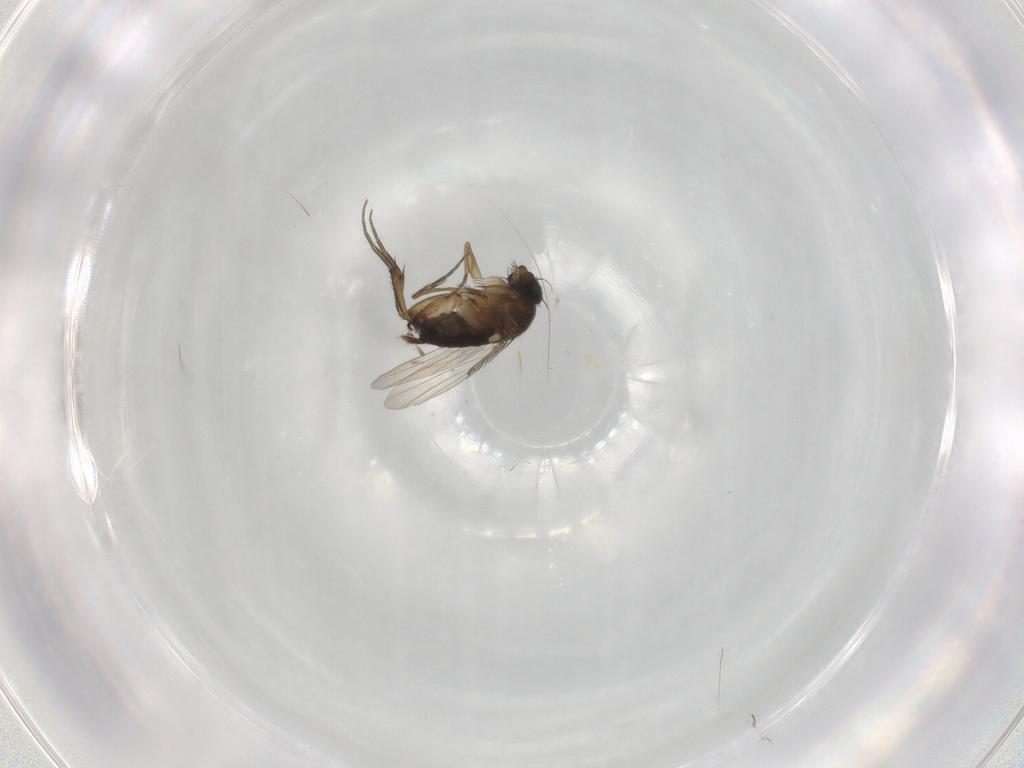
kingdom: Animalia
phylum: Arthropoda
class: Insecta
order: Diptera
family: Phoridae
